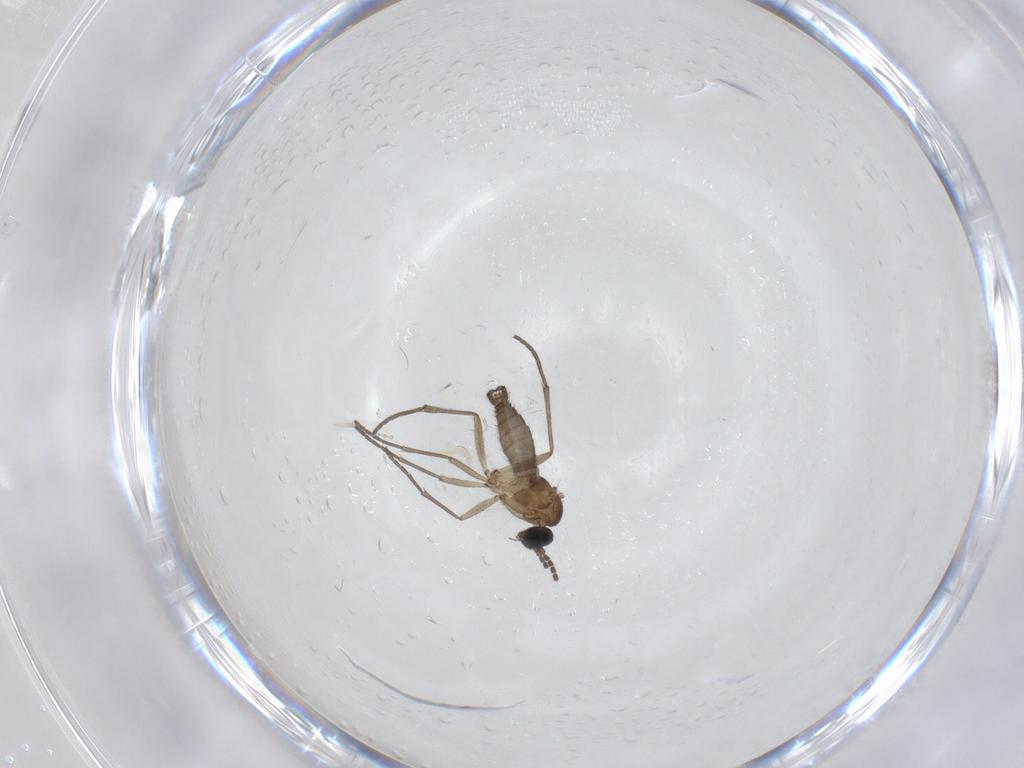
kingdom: Animalia
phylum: Arthropoda
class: Insecta
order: Diptera
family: Sciaridae
